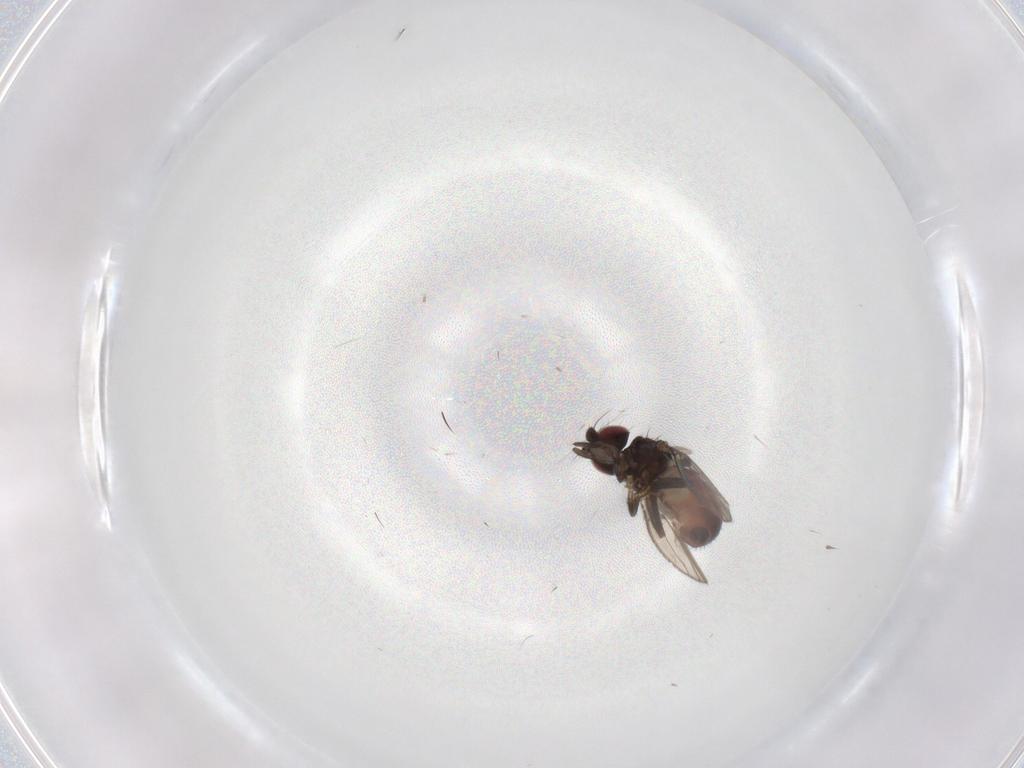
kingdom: Animalia
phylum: Arthropoda
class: Insecta
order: Diptera
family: Milichiidae
